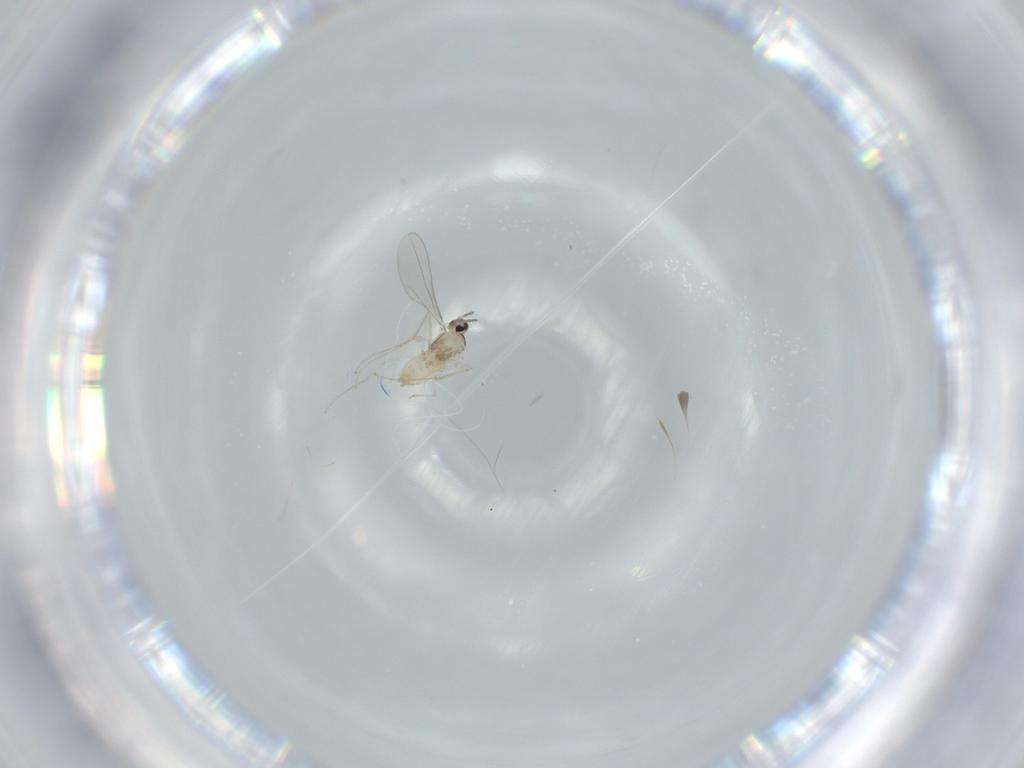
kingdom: Animalia
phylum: Arthropoda
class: Insecta
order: Diptera
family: Cecidomyiidae
